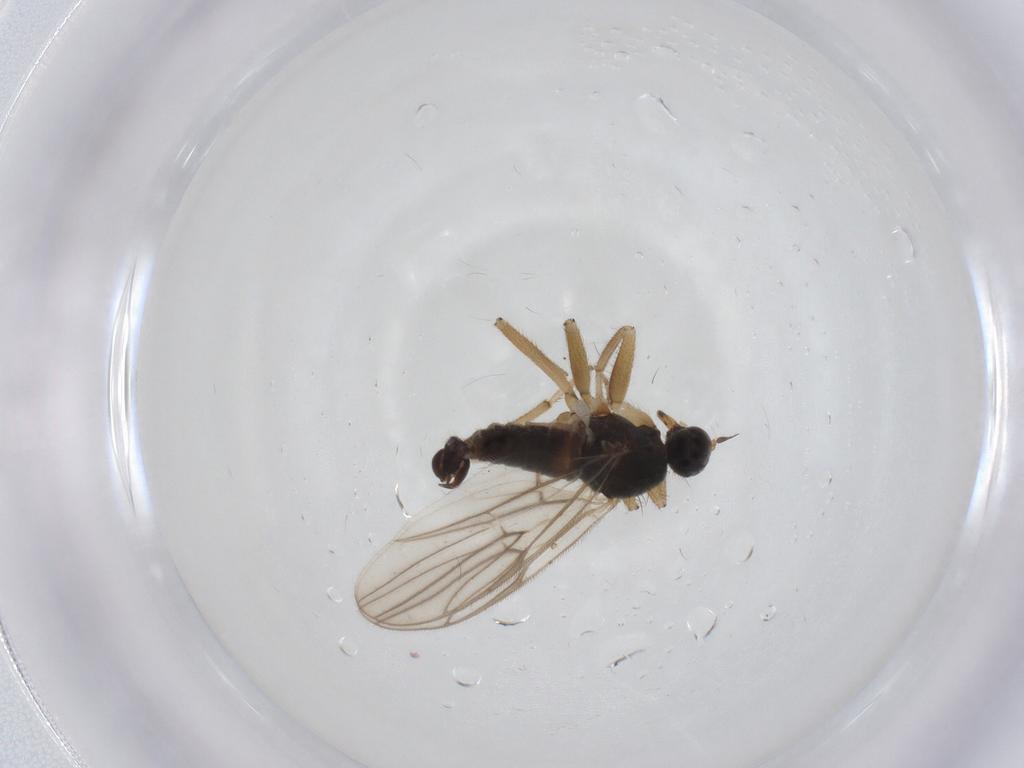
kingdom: Animalia
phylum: Arthropoda
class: Insecta
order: Diptera
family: Hybotidae
